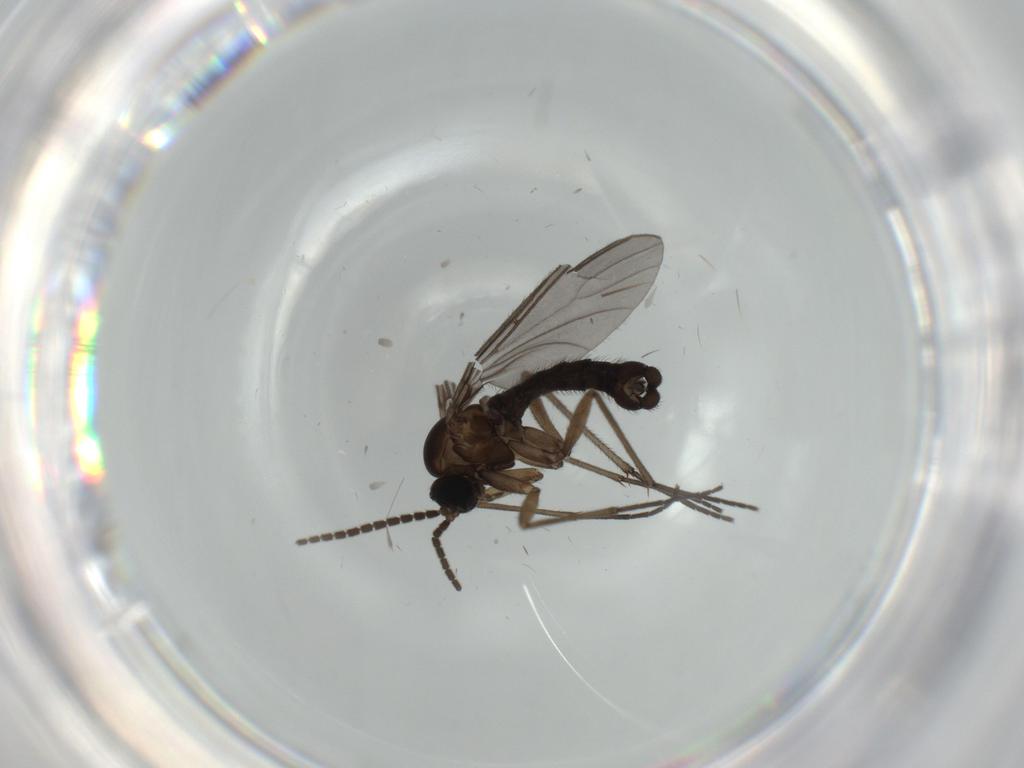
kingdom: Animalia
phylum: Arthropoda
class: Insecta
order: Diptera
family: Sciaridae
